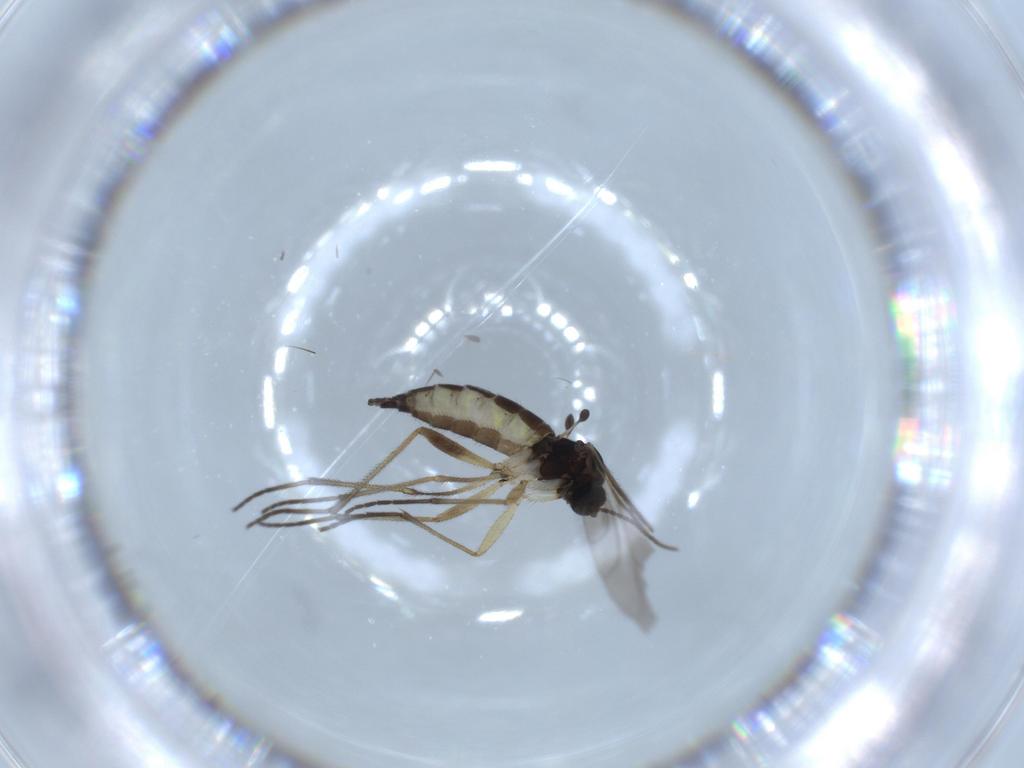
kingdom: Animalia
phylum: Arthropoda
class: Insecta
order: Diptera
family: Sciaridae
